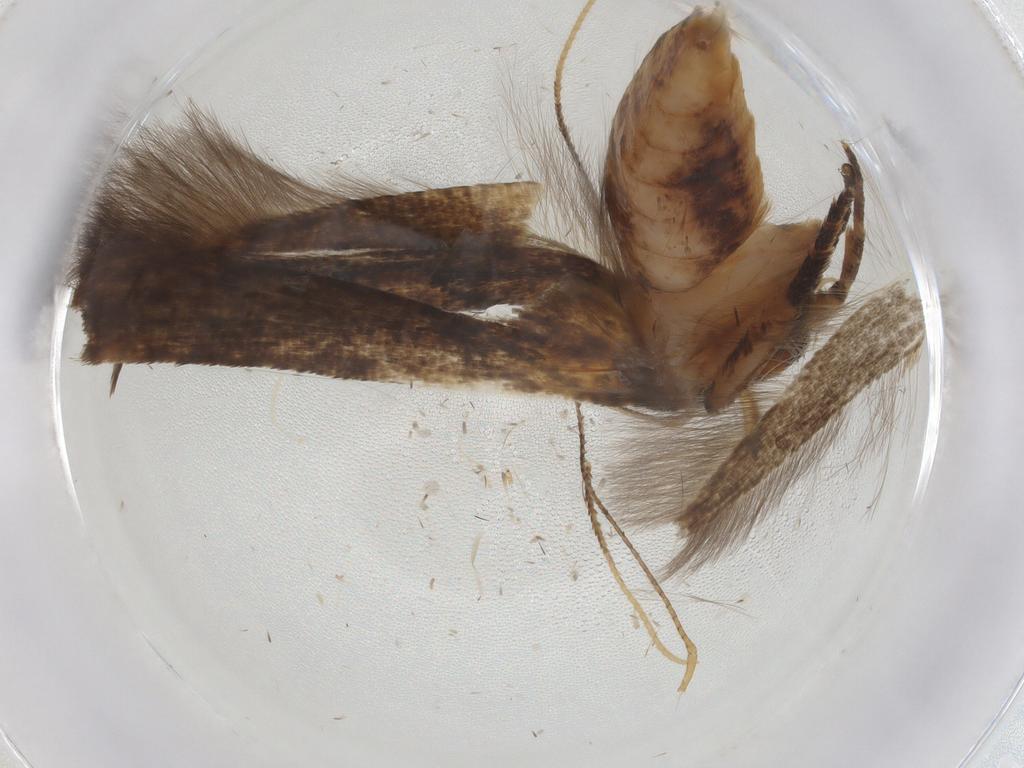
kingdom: Animalia
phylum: Arthropoda
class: Insecta
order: Lepidoptera
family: Cosmopterigidae
